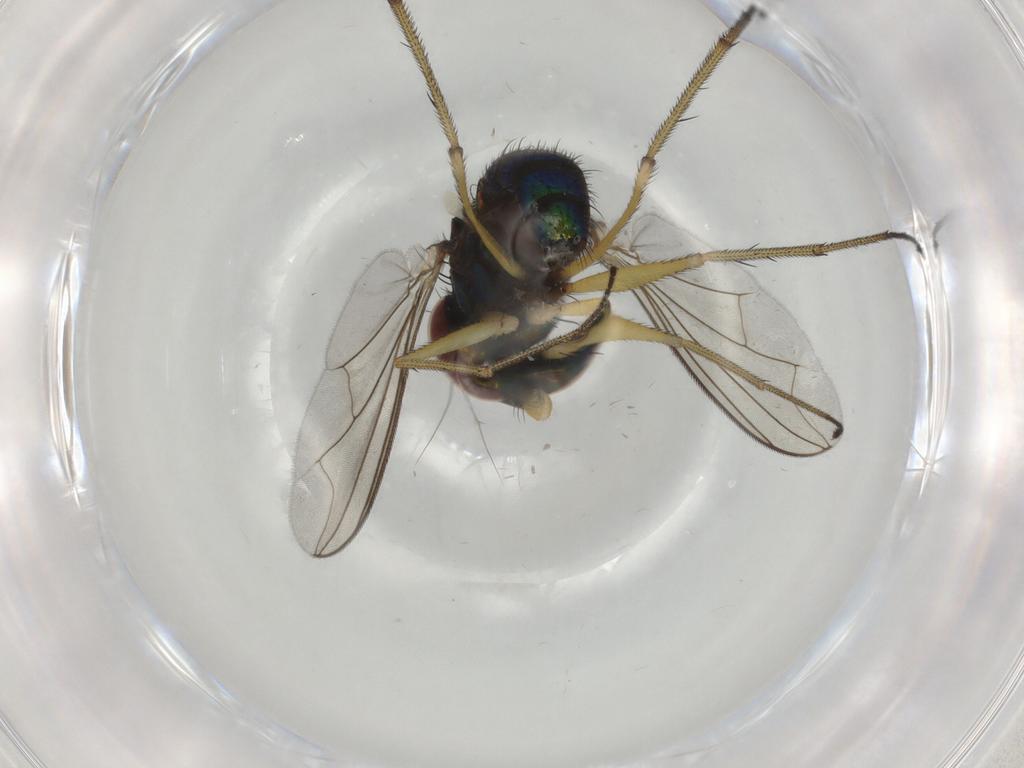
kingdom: Animalia
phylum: Arthropoda
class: Insecta
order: Diptera
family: Dolichopodidae
